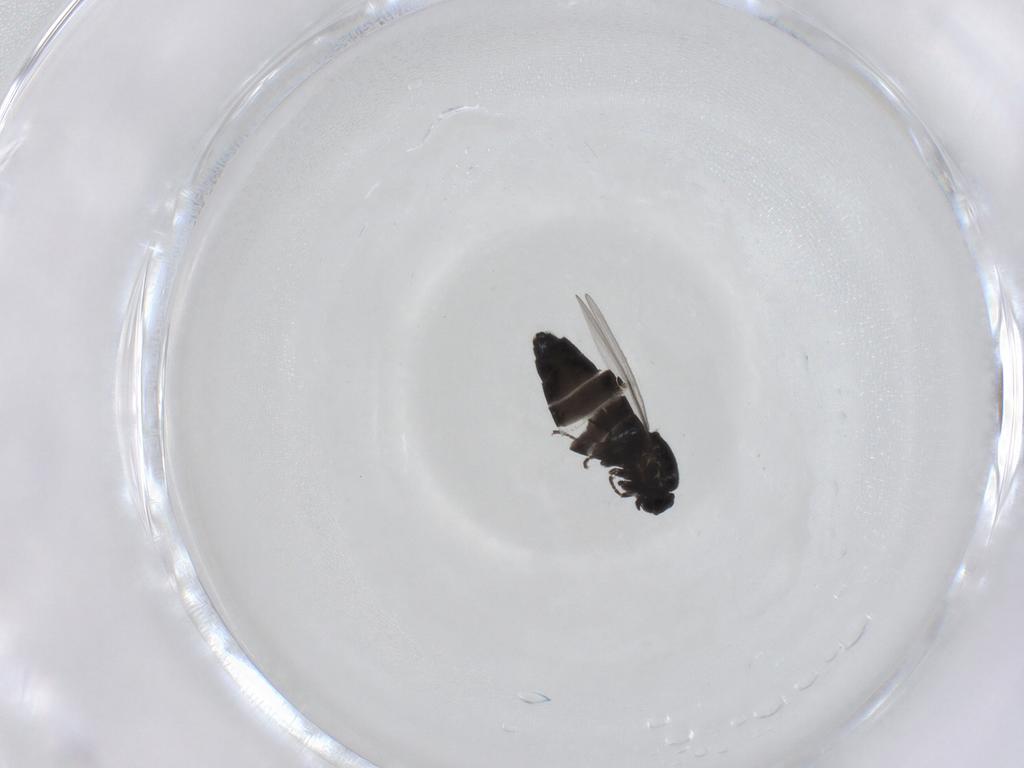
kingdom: Animalia
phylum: Arthropoda
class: Insecta
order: Diptera
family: Scatopsidae
